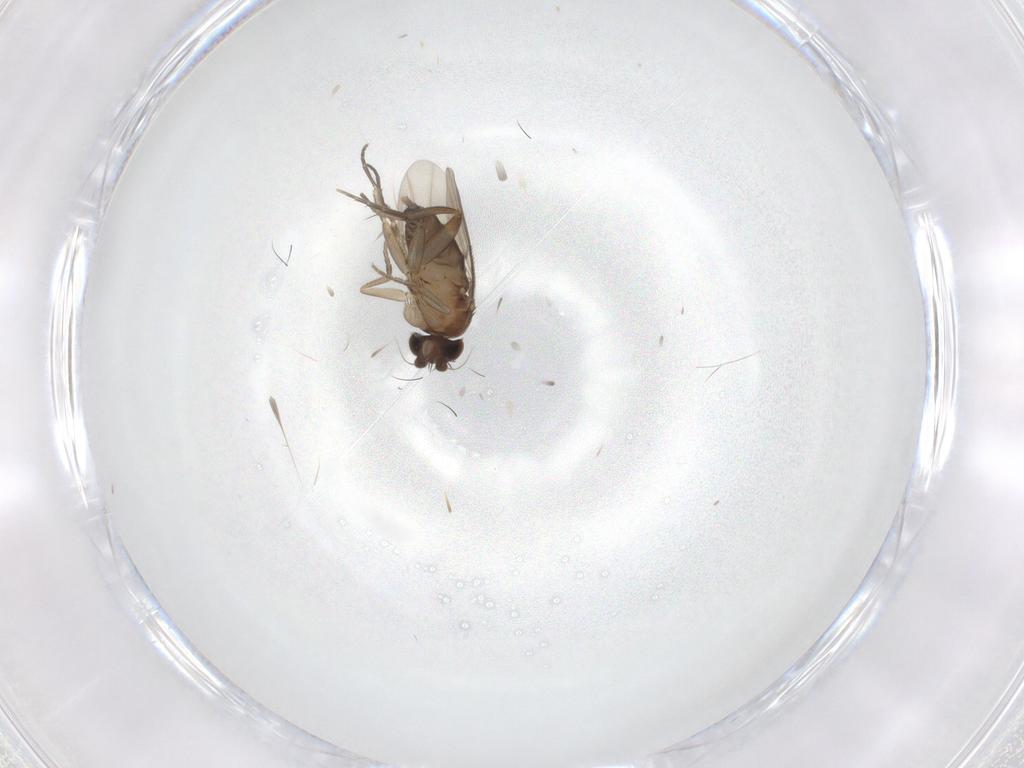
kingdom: Animalia
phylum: Arthropoda
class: Insecta
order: Diptera
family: Phoridae
